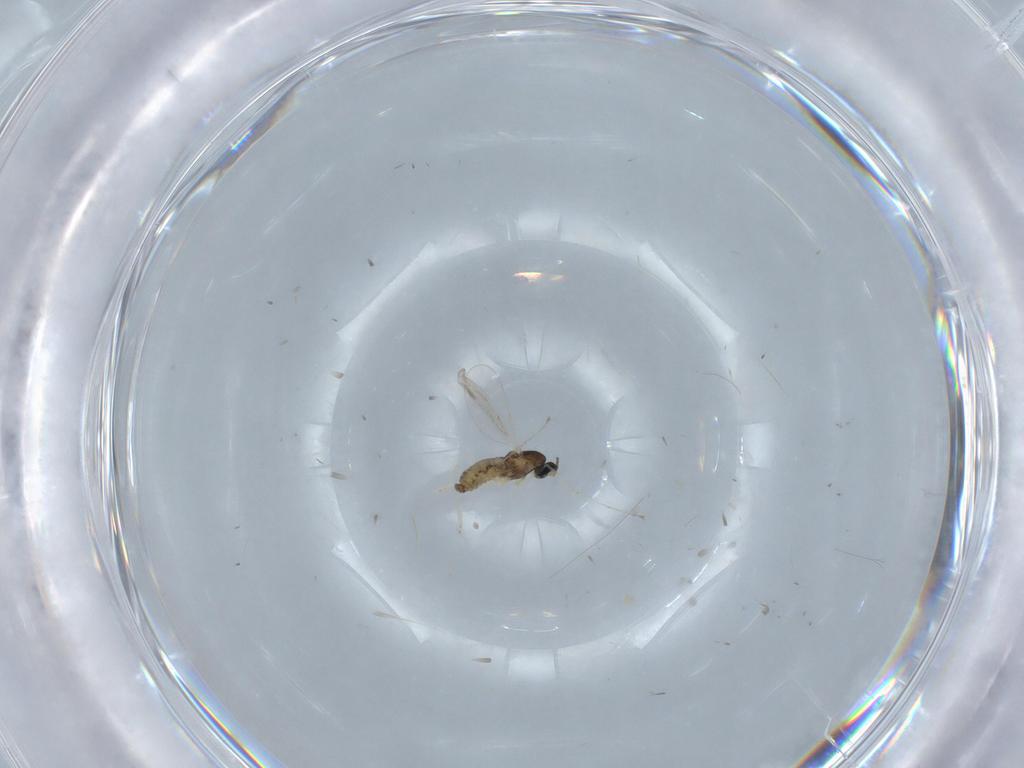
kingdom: Animalia
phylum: Arthropoda
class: Insecta
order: Diptera
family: Cecidomyiidae
